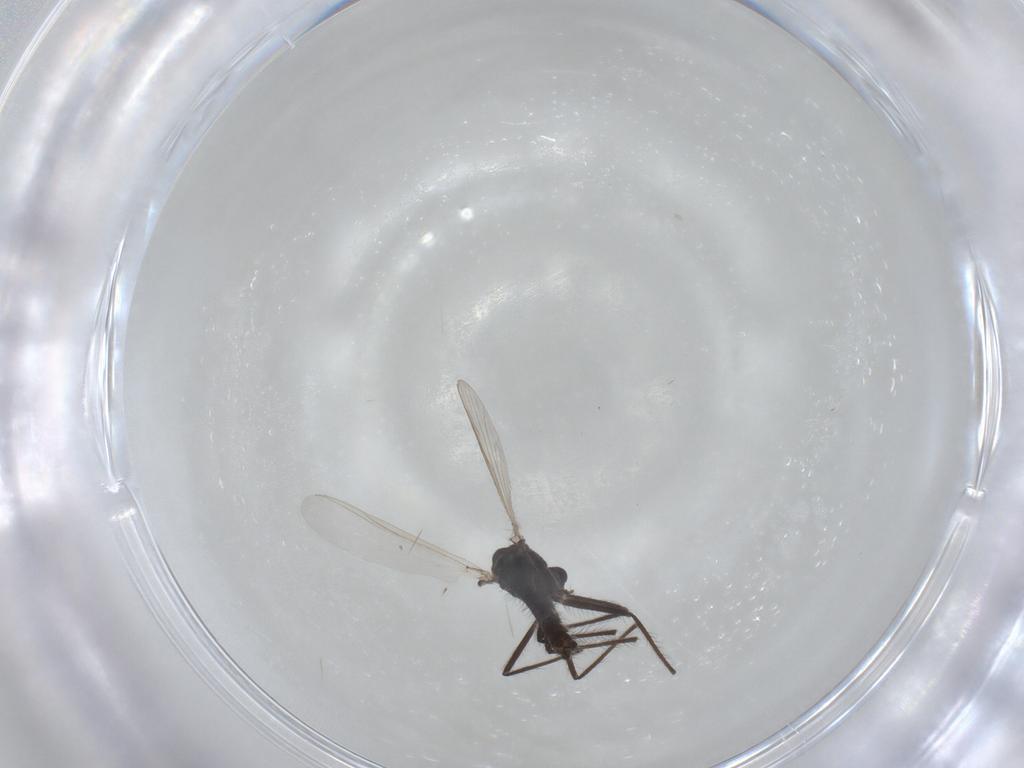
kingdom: Animalia
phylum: Arthropoda
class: Insecta
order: Diptera
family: Chironomidae
